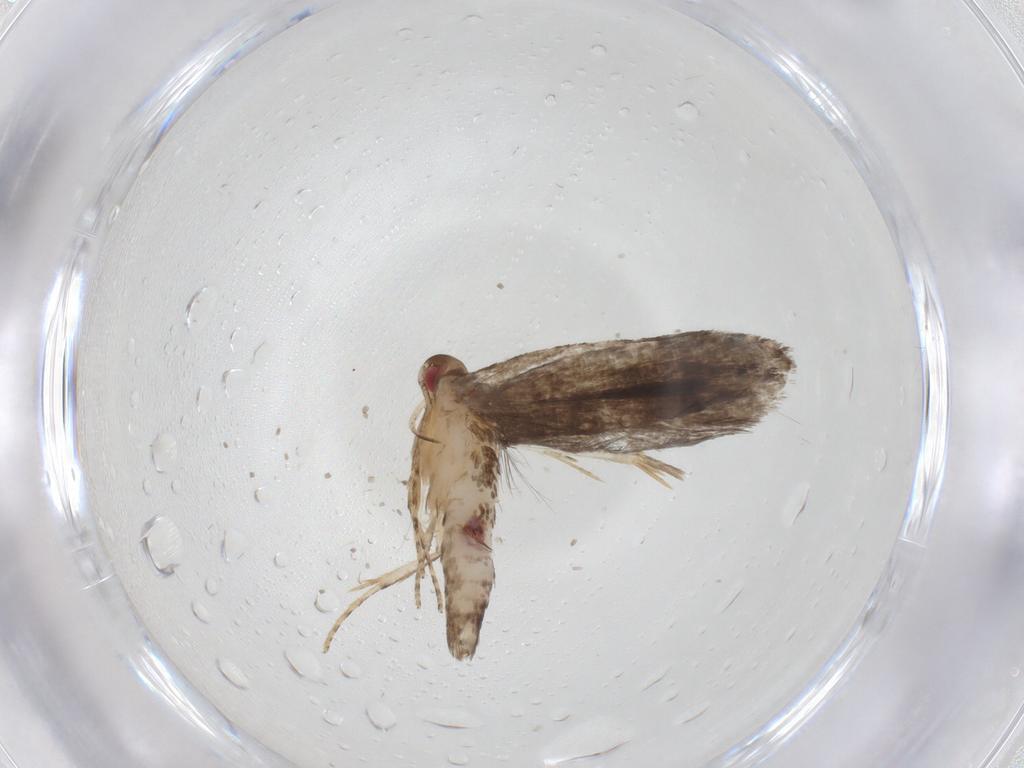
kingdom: Animalia
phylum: Arthropoda
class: Insecta
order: Lepidoptera
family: Gelechiidae
